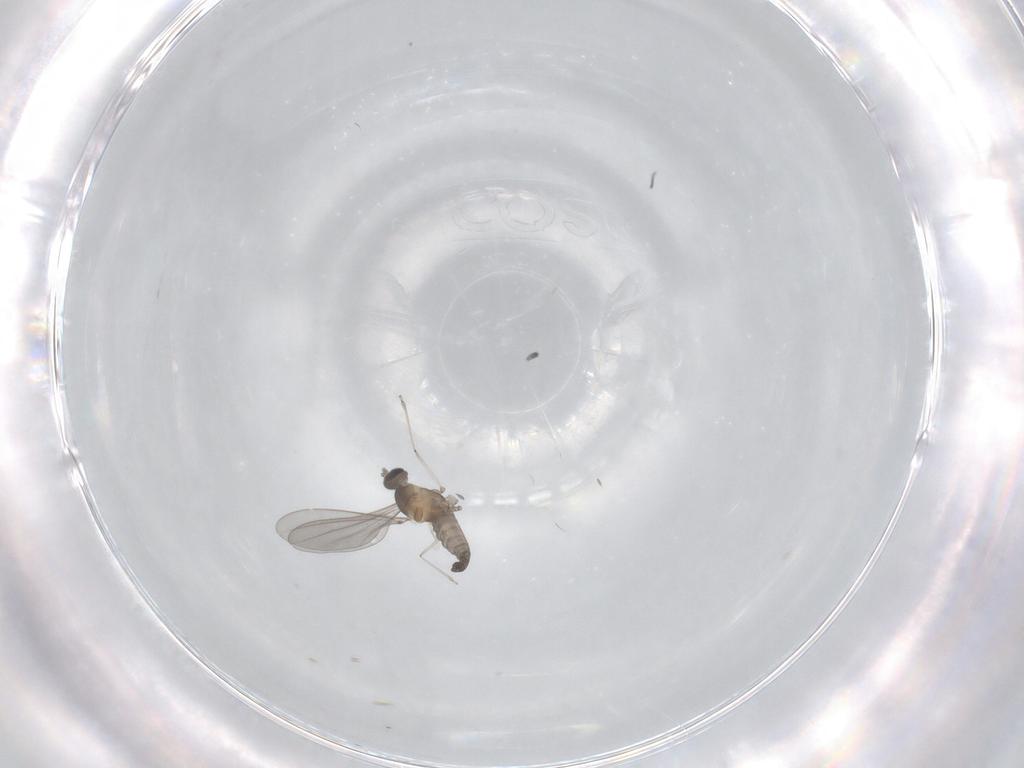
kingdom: Animalia
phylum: Arthropoda
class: Insecta
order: Diptera
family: Cecidomyiidae
